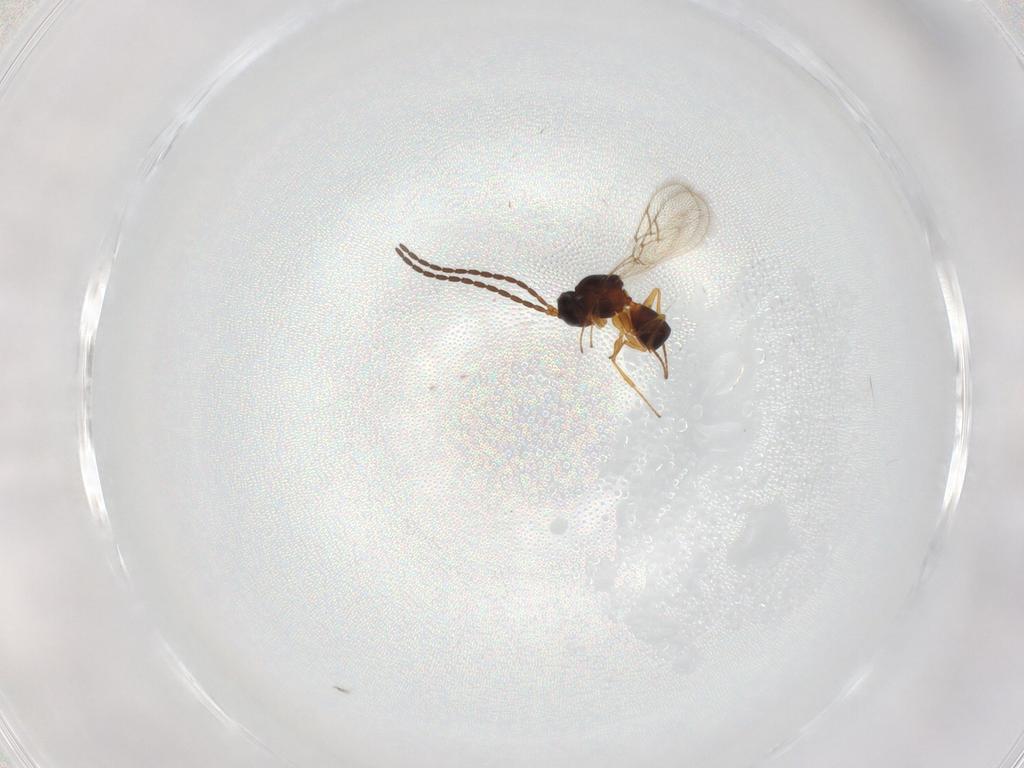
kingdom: Animalia
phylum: Arthropoda
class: Insecta
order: Hymenoptera
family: Figitidae
